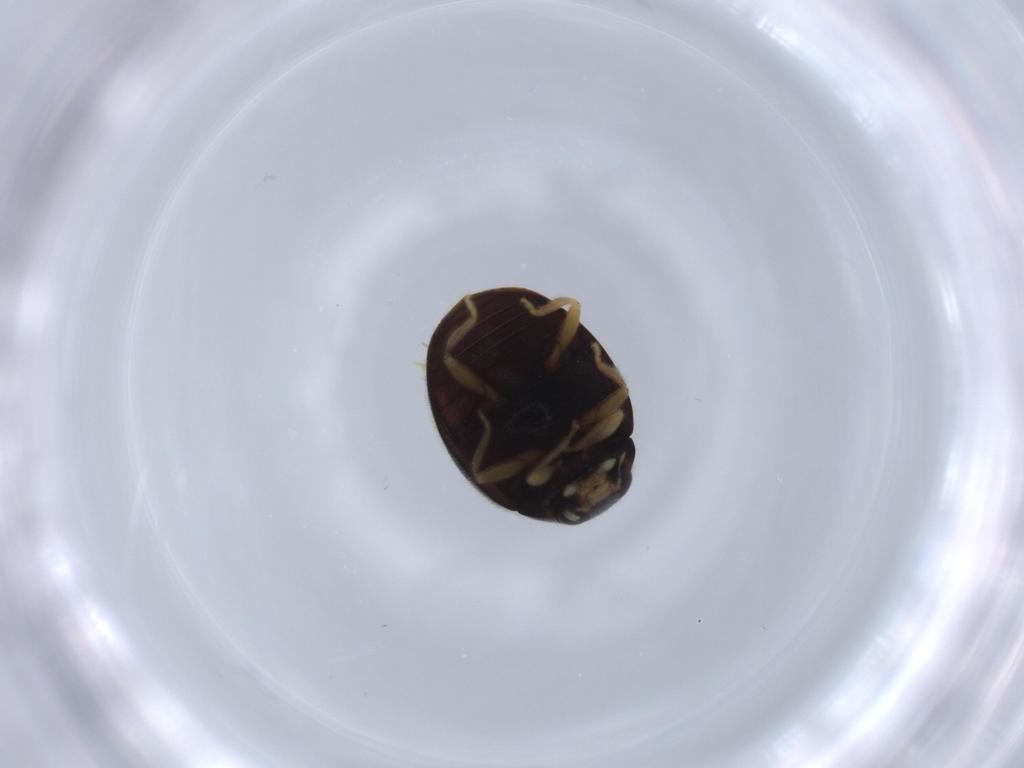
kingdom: Animalia
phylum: Arthropoda
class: Insecta
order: Coleoptera
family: Coccinellidae
